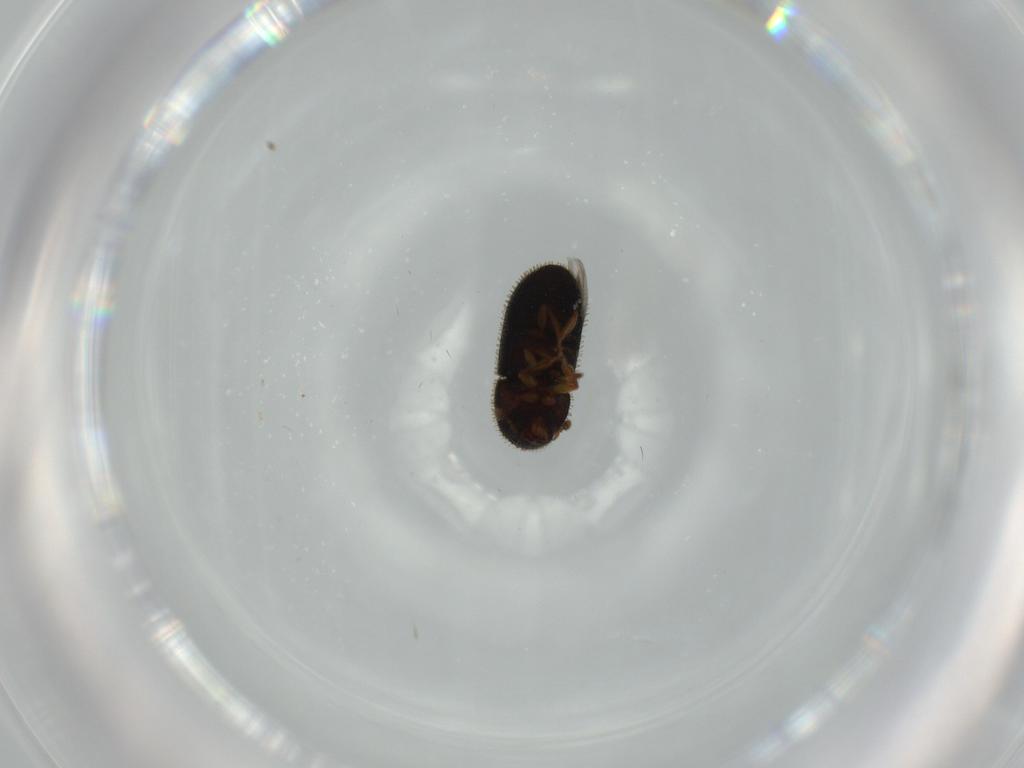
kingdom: Animalia
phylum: Arthropoda
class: Insecta
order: Coleoptera
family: Curculionidae
